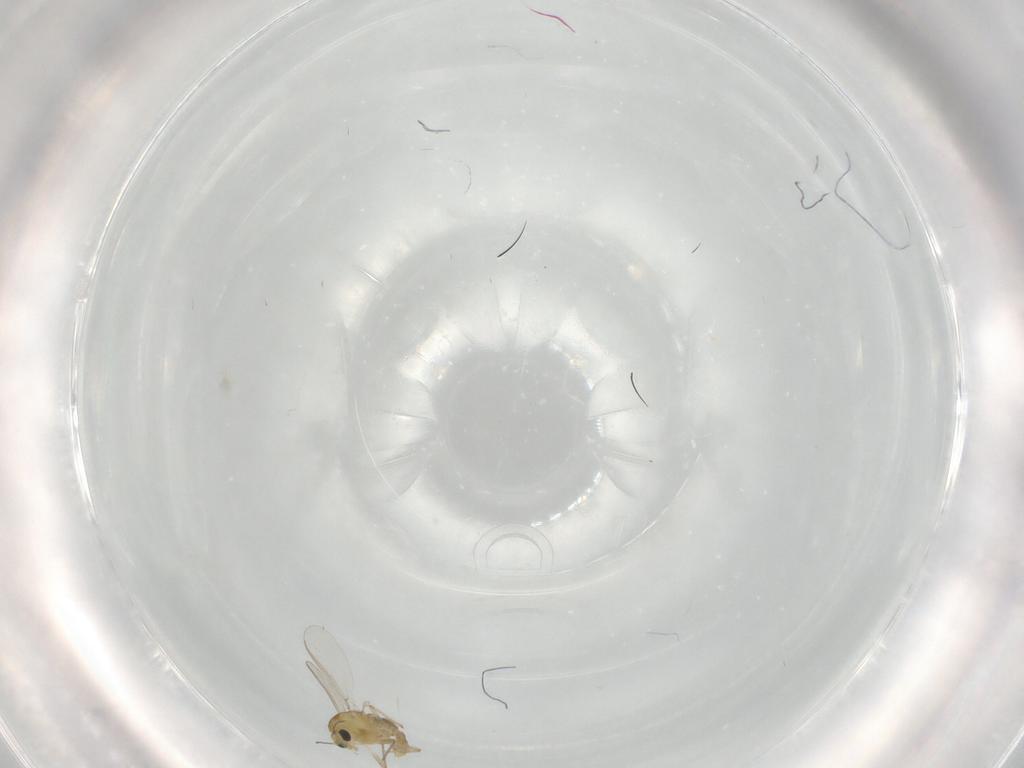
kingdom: Animalia
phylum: Arthropoda
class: Insecta
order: Diptera
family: Chironomidae
